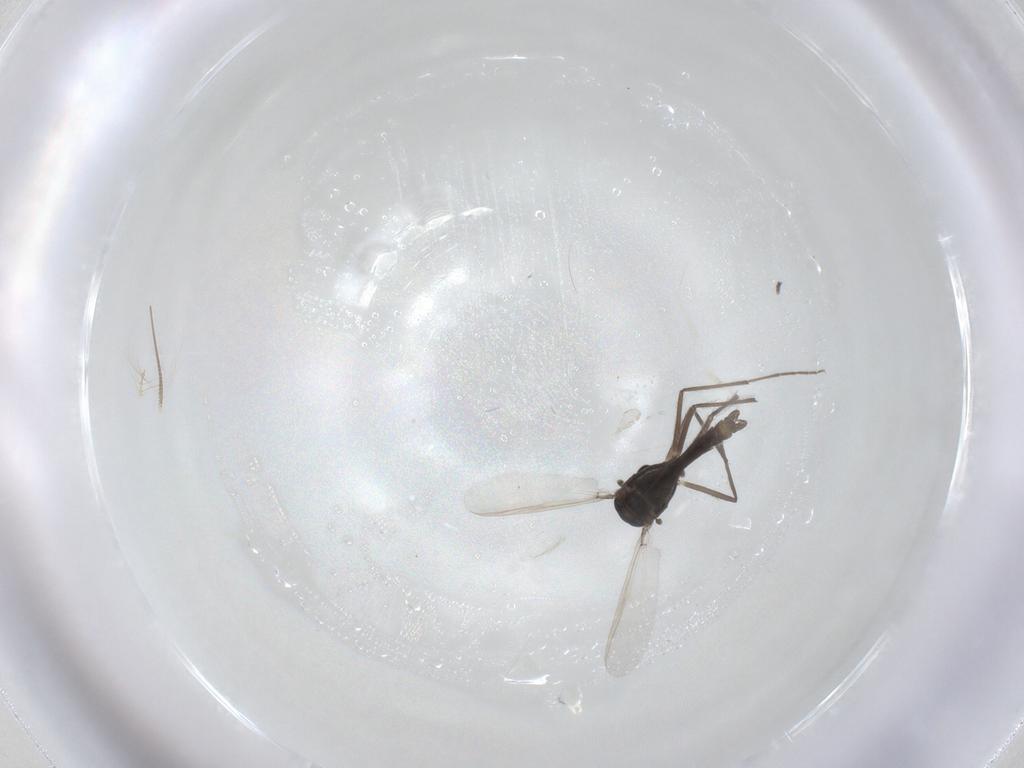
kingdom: Animalia
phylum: Arthropoda
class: Insecta
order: Diptera
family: Chironomidae
